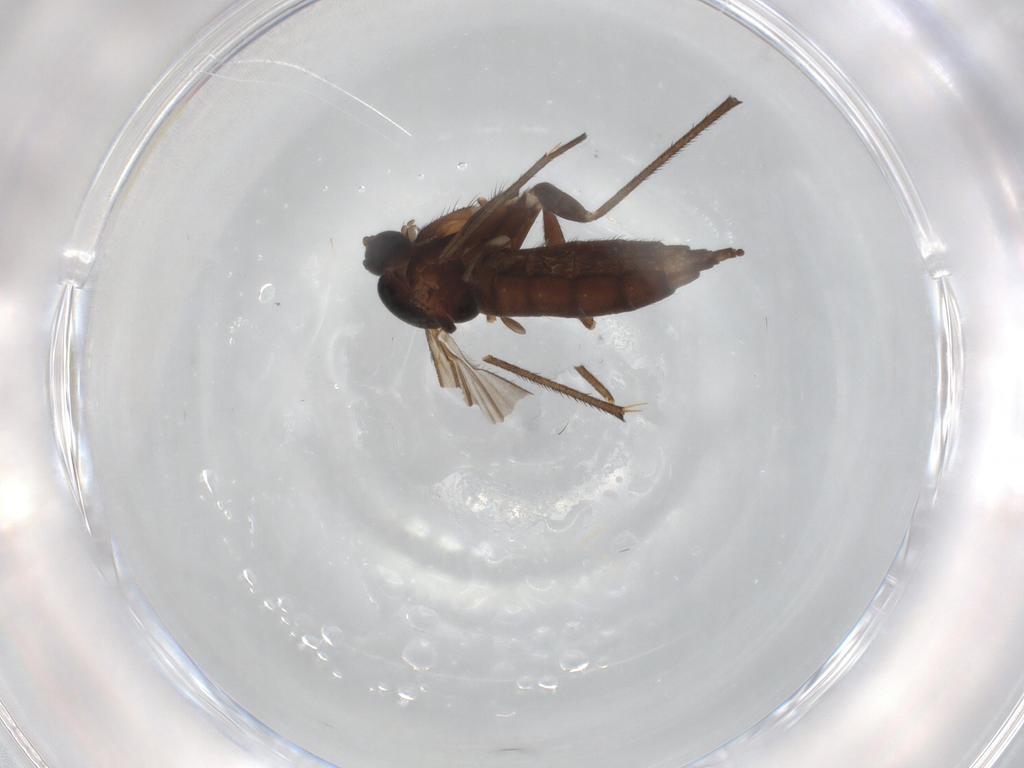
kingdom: Animalia
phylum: Arthropoda
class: Insecta
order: Diptera
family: Sciaridae
